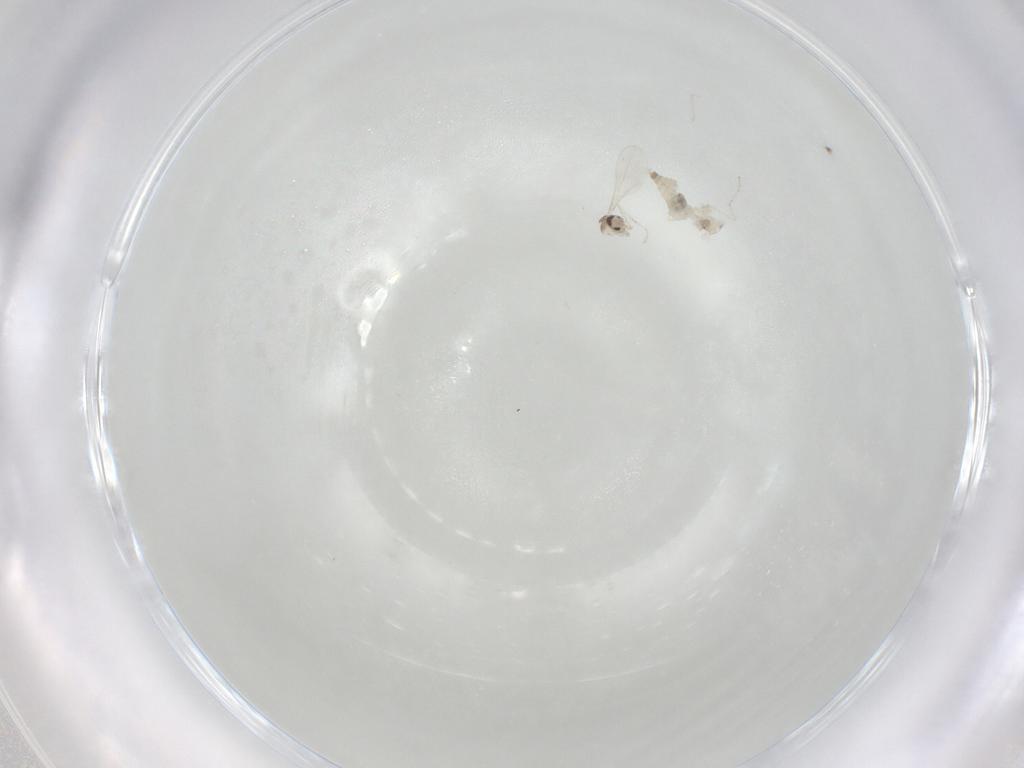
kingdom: Animalia
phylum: Arthropoda
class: Insecta
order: Diptera
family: Cecidomyiidae
